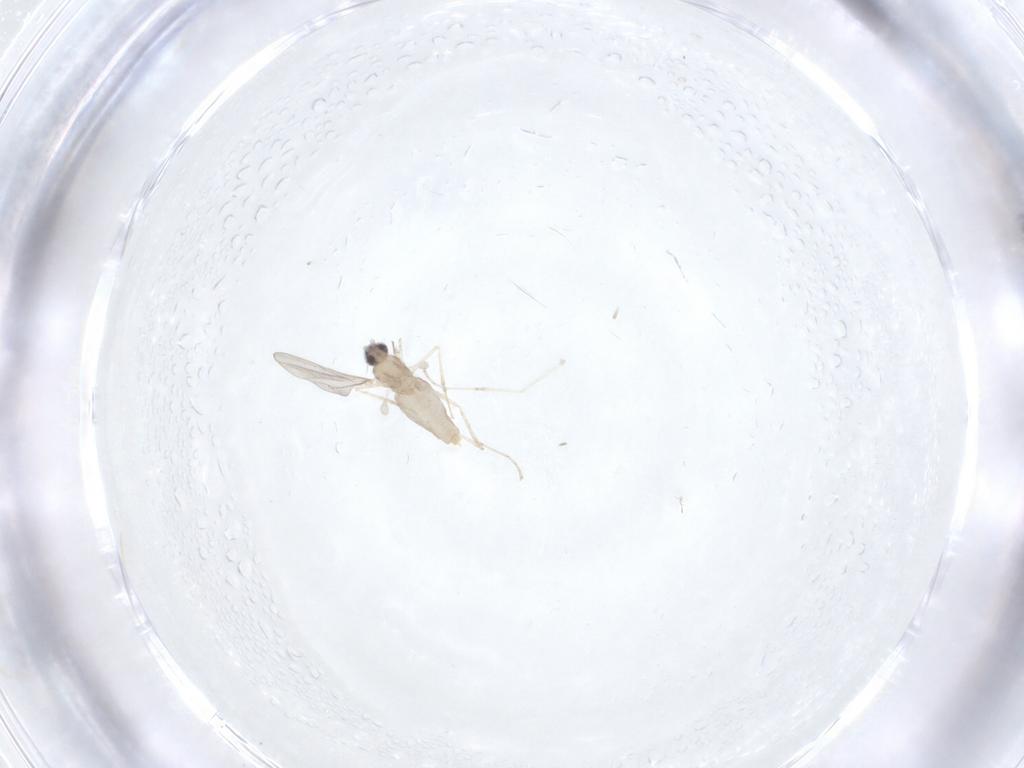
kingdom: Animalia
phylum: Arthropoda
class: Insecta
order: Diptera
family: Cecidomyiidae
